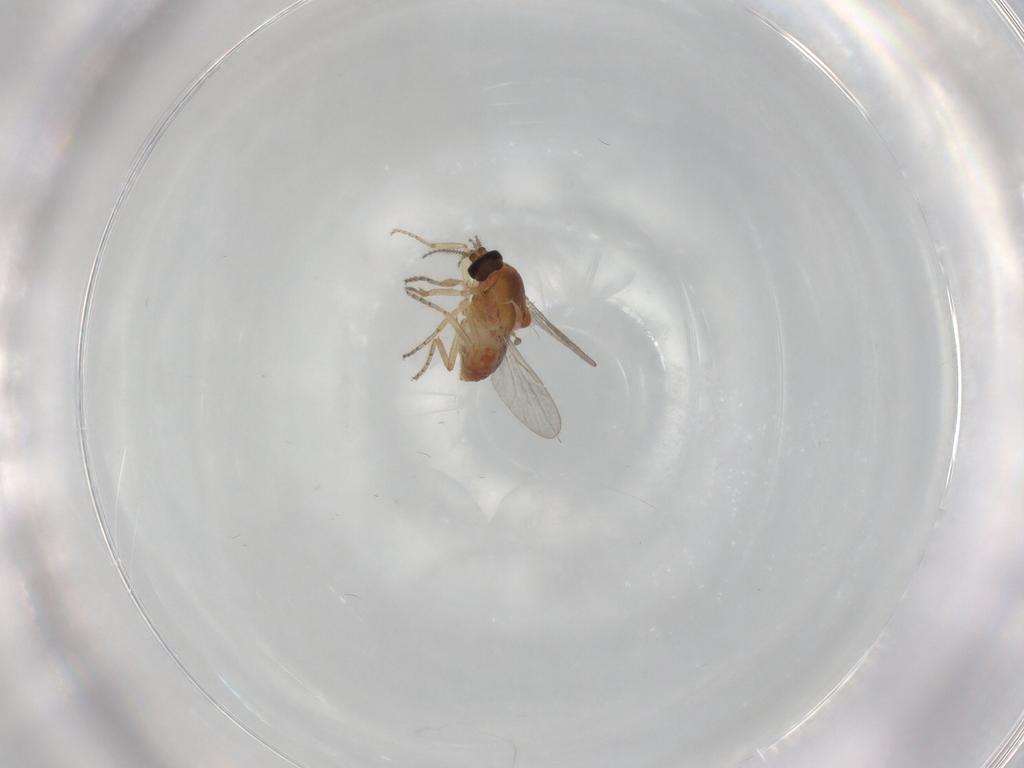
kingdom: Animalia
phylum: Arthropoda
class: Insecta
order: Diptera
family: Ceratopogonidae
